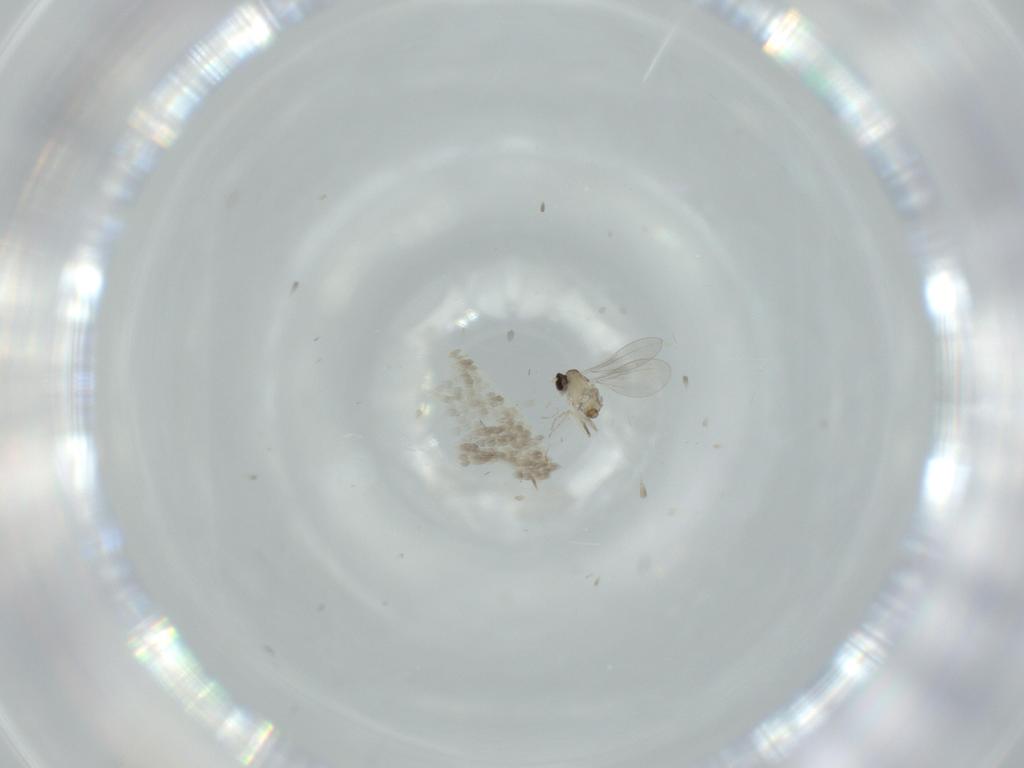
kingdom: Animalia
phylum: Arthropoda
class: Insecta
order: Diptera
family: Cecidomyiidae
